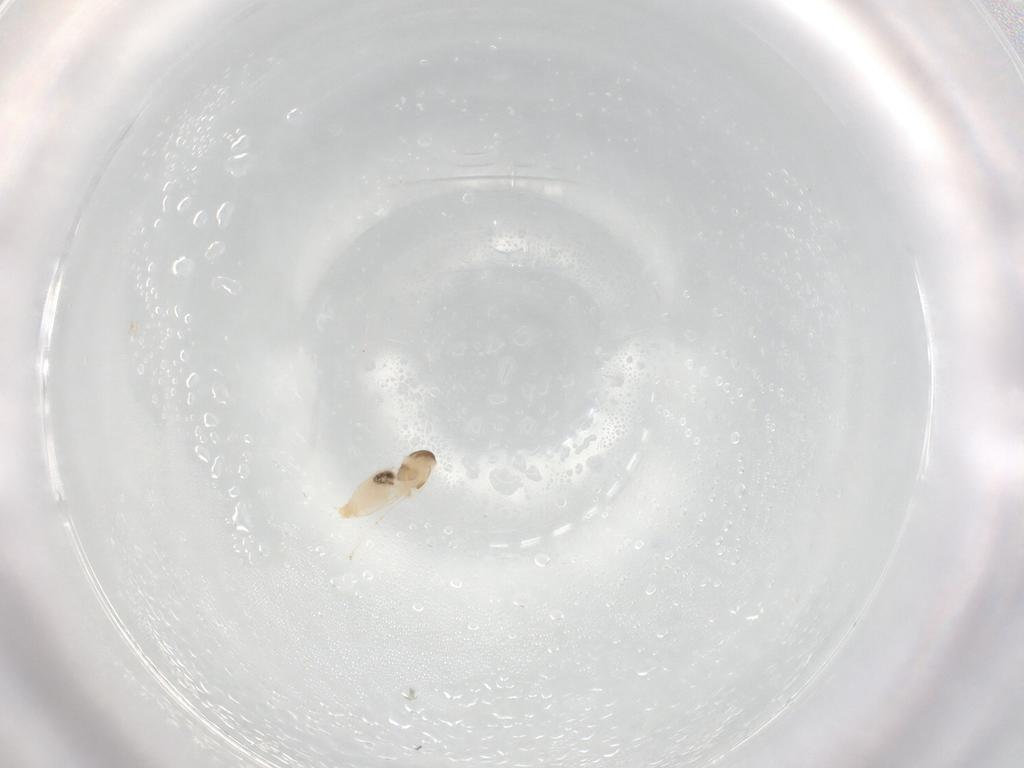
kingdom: Animalia
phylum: Arthropoda
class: Insecta
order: Diptera
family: Cecidomyiidae
